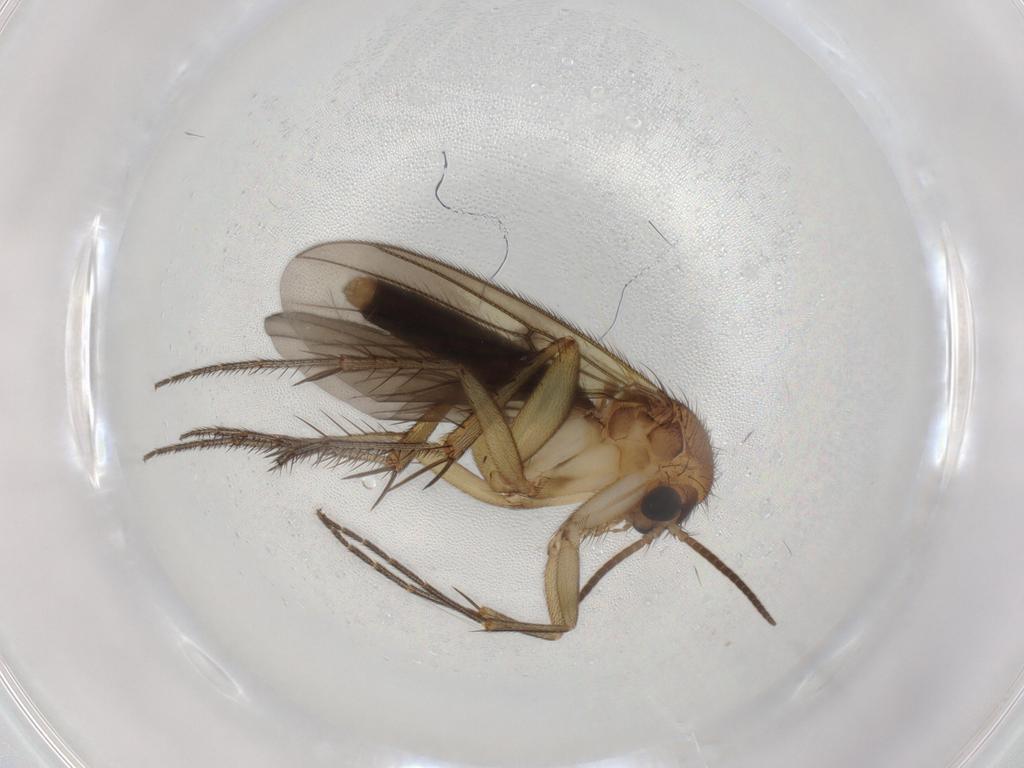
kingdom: Animalia
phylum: Arthropoda
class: Insecta
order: Diptera
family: Mycetophilidae
